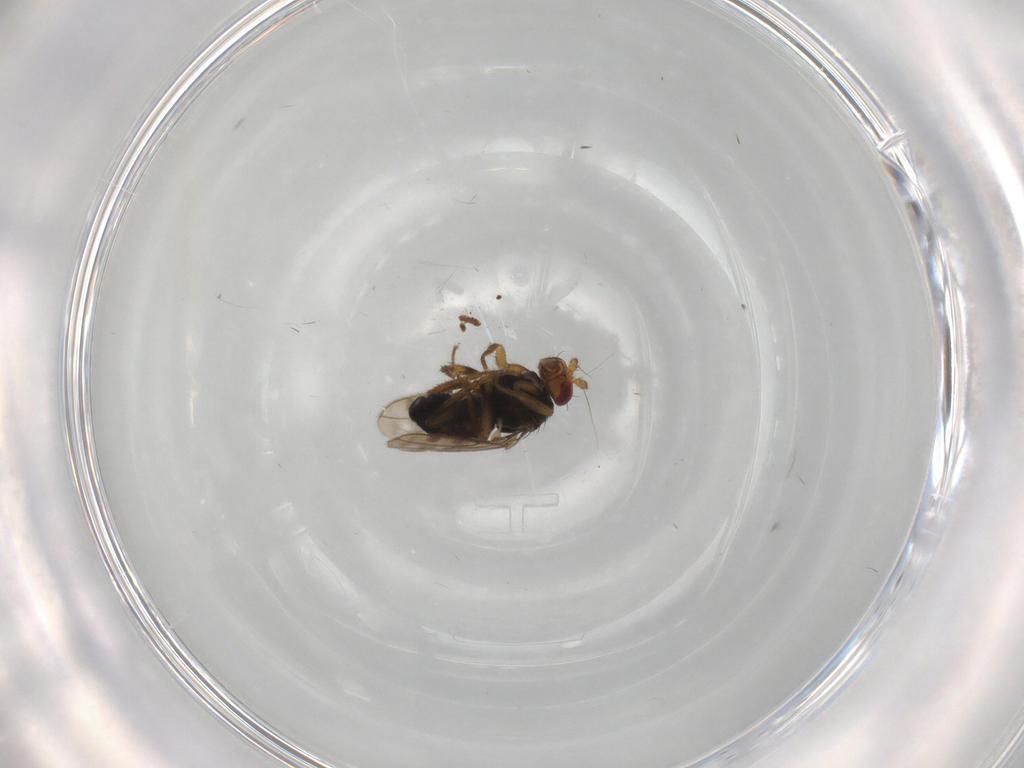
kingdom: Animalia
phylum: Arthropoda
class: Insecta
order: Diptera
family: Sphaeroceridae
